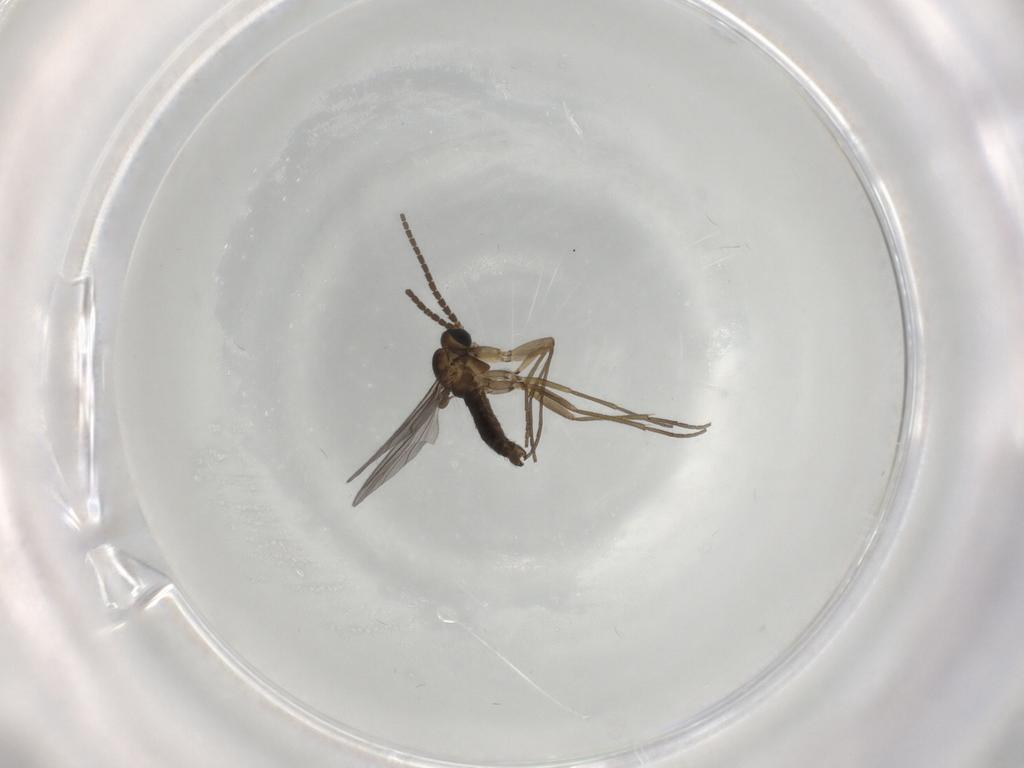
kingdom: Animalia
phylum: Arthropoda
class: Insecta
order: Diptera
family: Sciaridae
